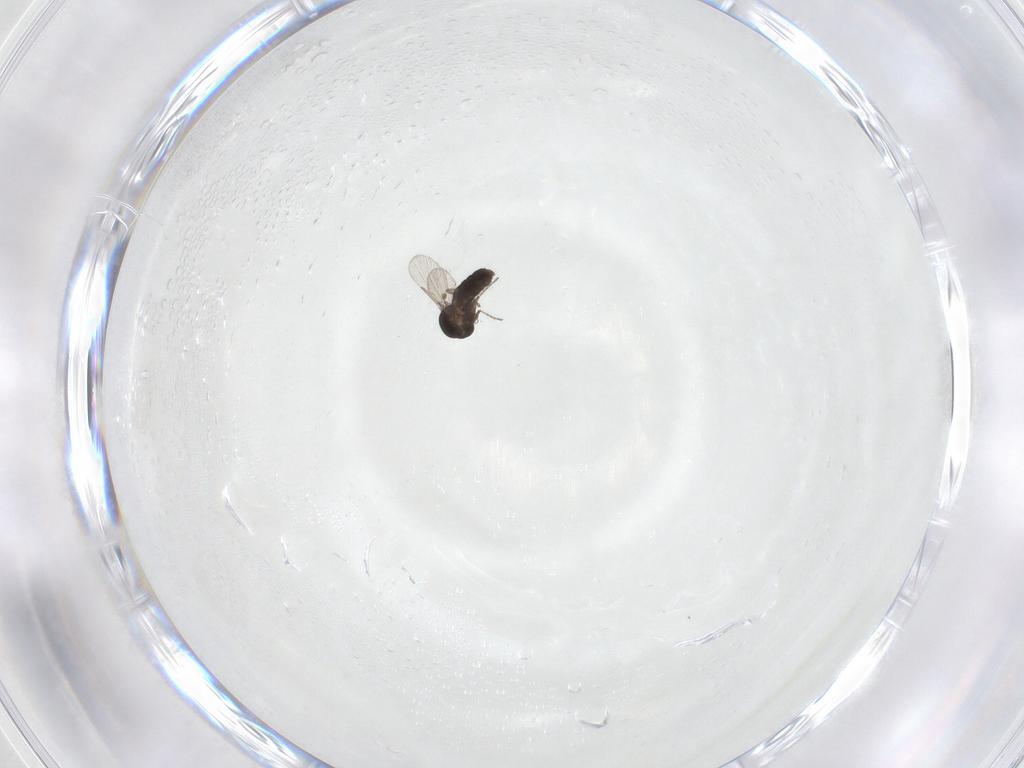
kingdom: Animalia
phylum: Arthropoda
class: Insecta
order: Diptera
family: Ceratopogonidae
